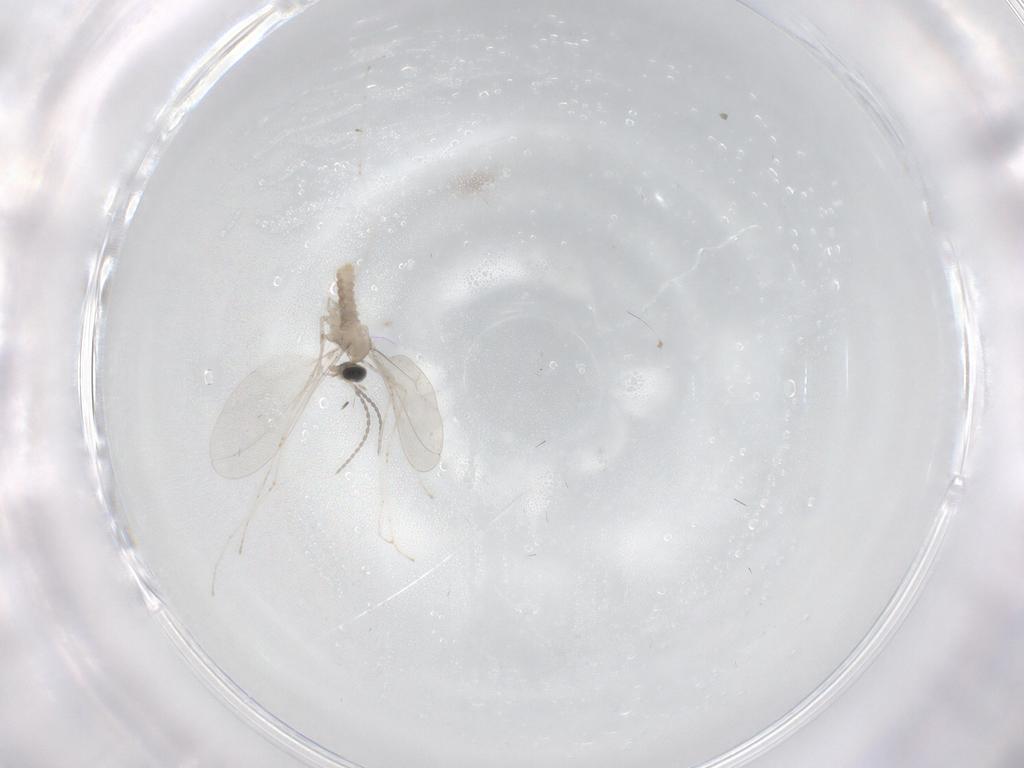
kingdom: Animalia
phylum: Arthropoda
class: Insecta
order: Diptera
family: Cecidomyiidae
